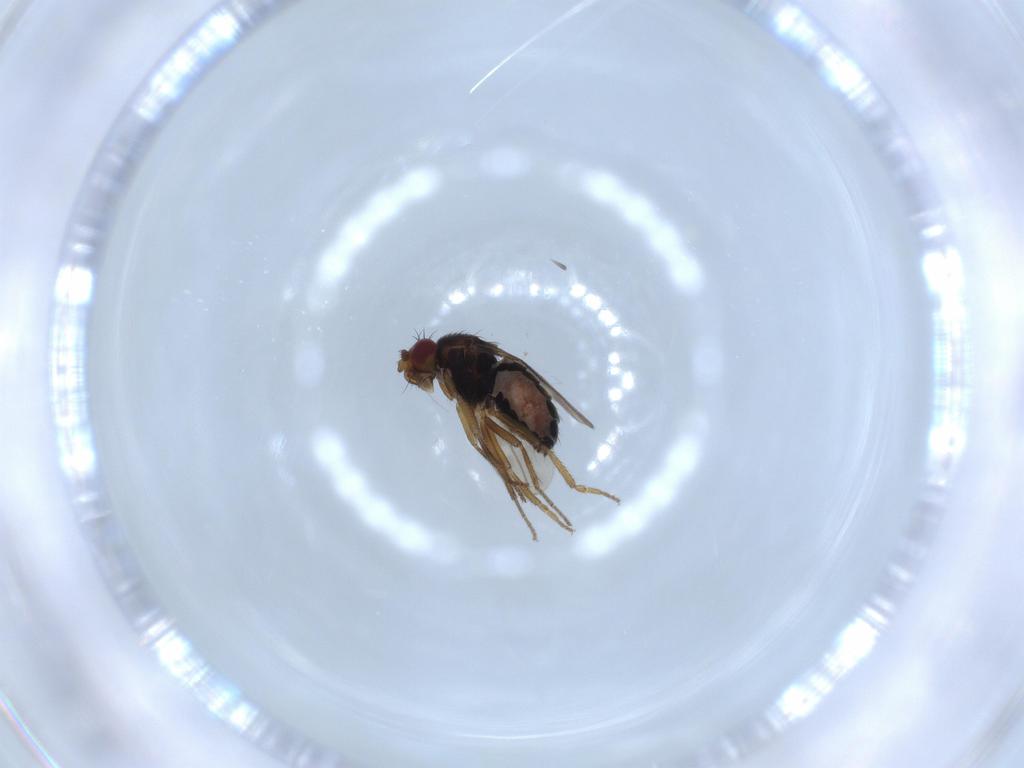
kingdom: Animalia
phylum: Arthropoda
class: Insecta
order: Diptera
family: Sphaeroceridae
